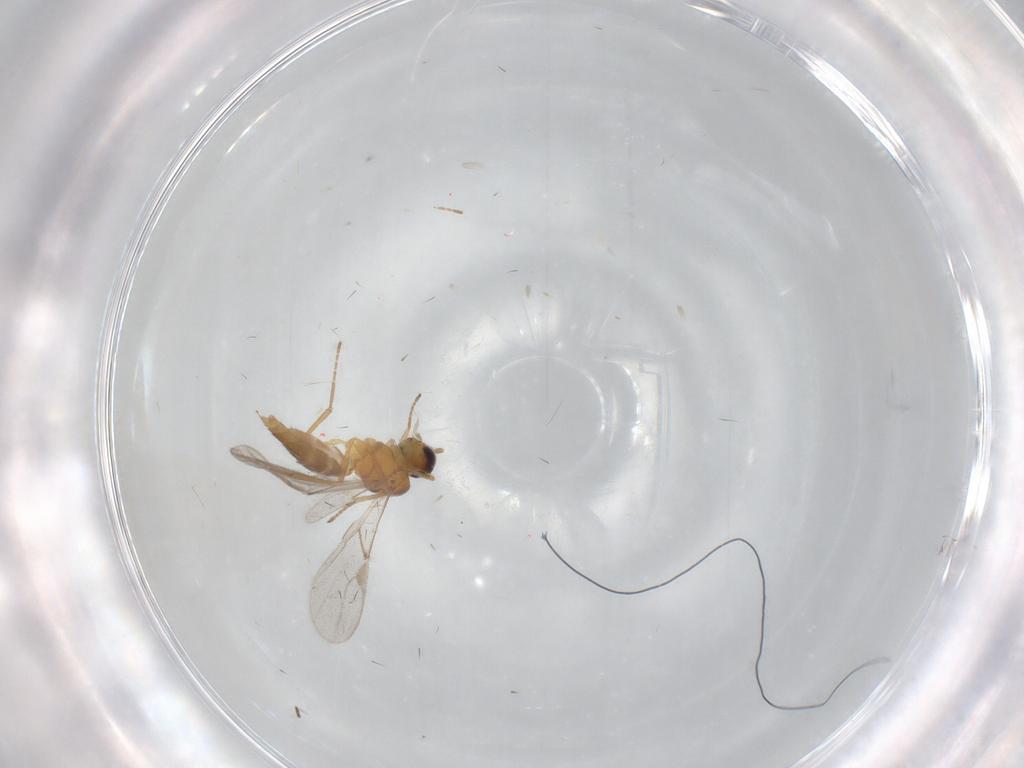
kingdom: Animalia
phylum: Arthropoda
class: Insecta
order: Hymenoptera
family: Braconidae
